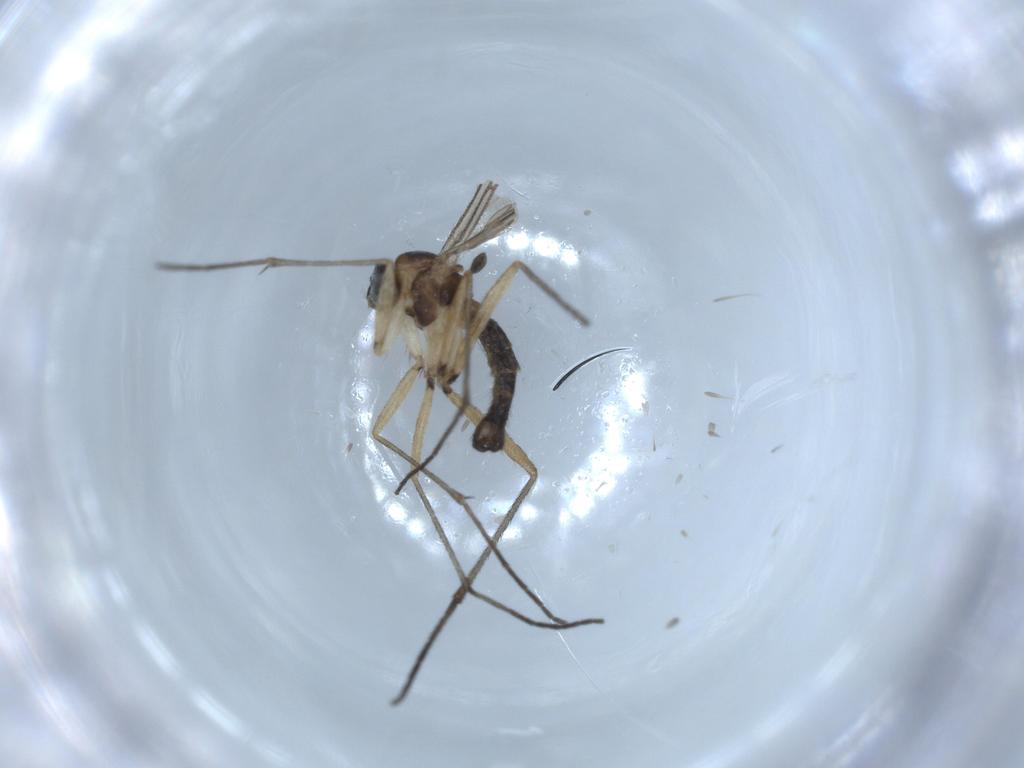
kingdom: Animalia
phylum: Arthropoda
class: Insecta
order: Diptera
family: Sciaridae
